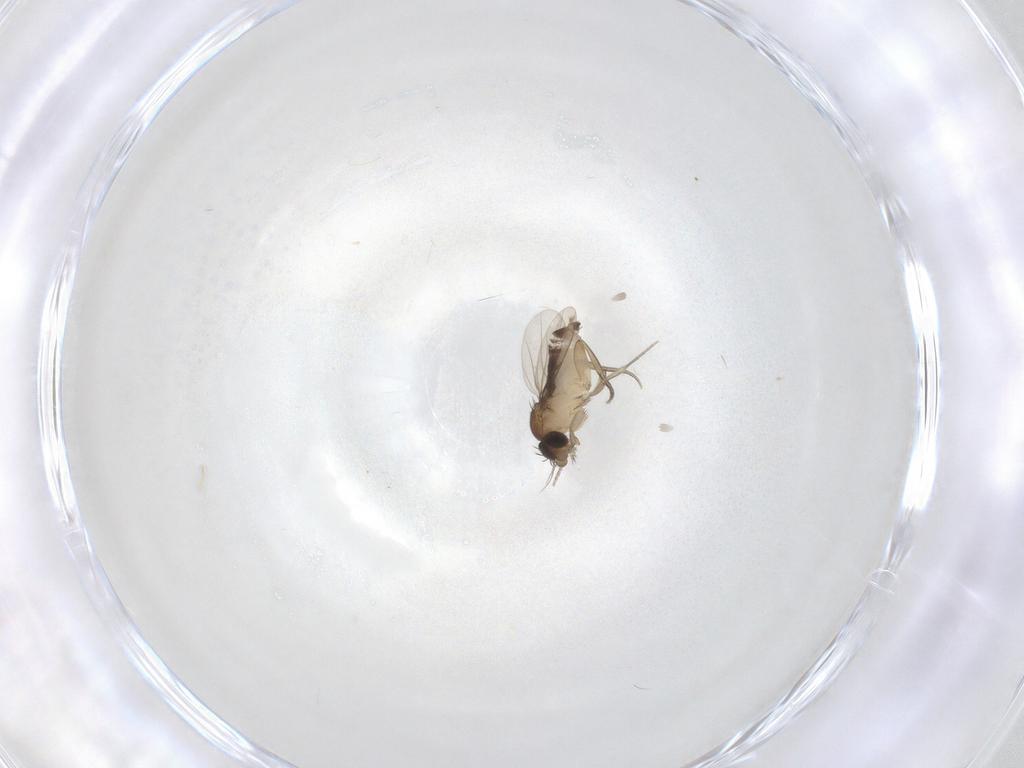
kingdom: Animalia
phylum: Arthropoda
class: Insecta
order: Diptera
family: Phoridae
